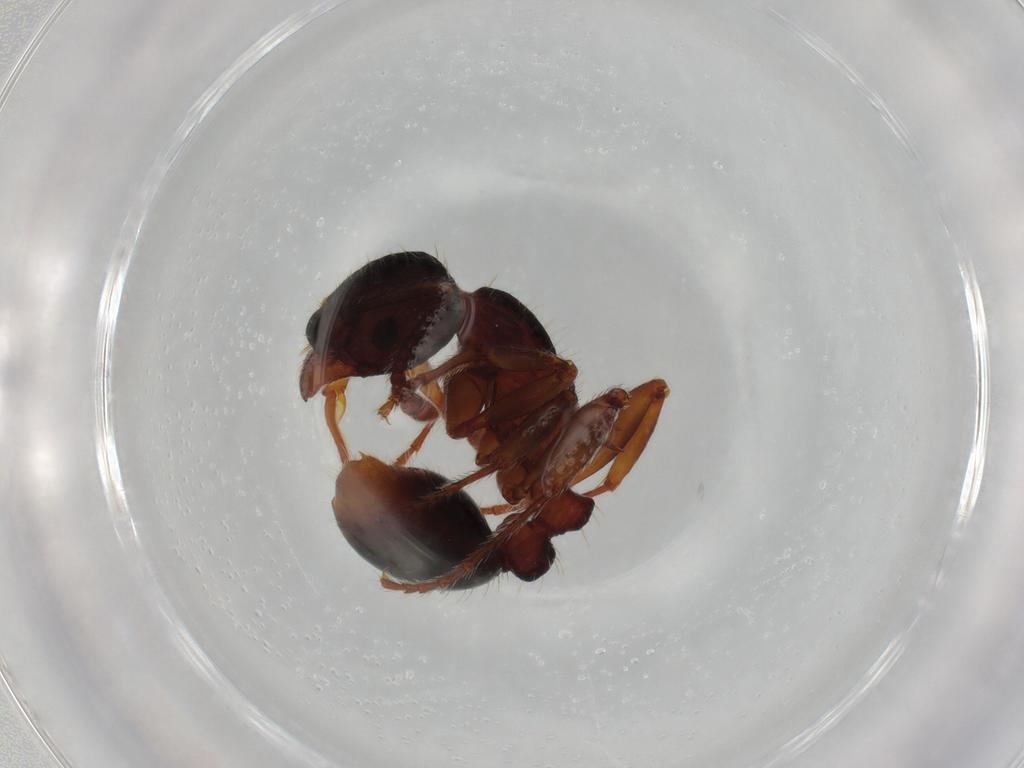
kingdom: Animalia
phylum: Arthropoda
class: Insecta
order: Hymenoptera
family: Formicidae
